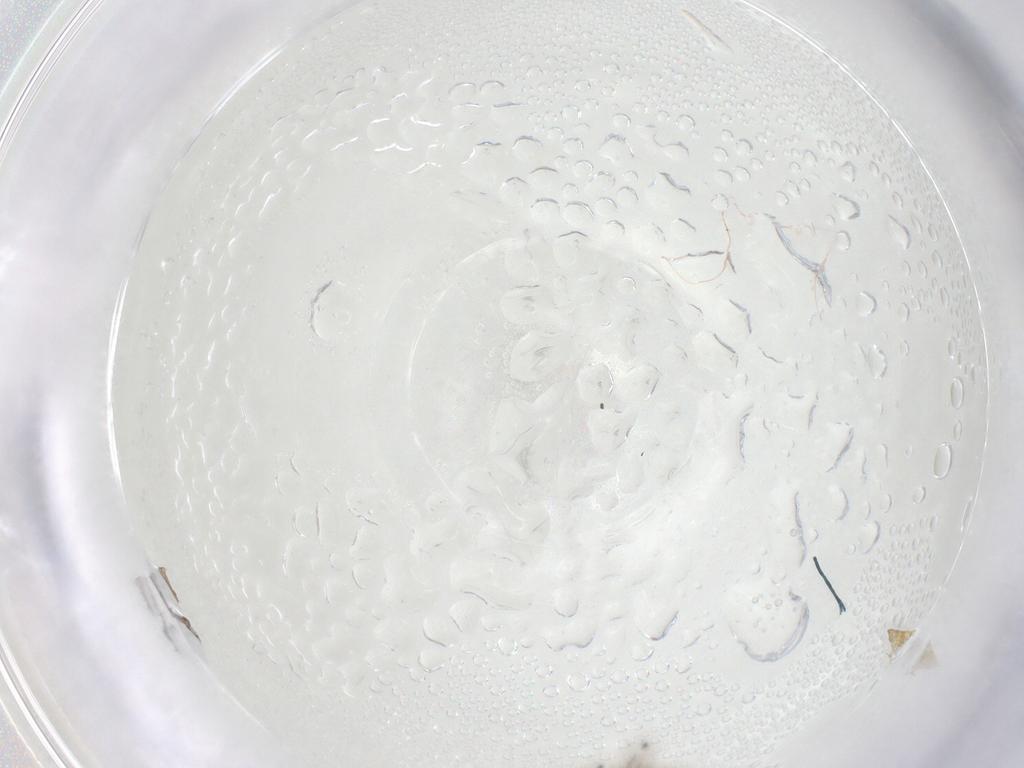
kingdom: Animalia
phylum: Arthropoda
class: Insecta
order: Diptera
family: Chironomidae
